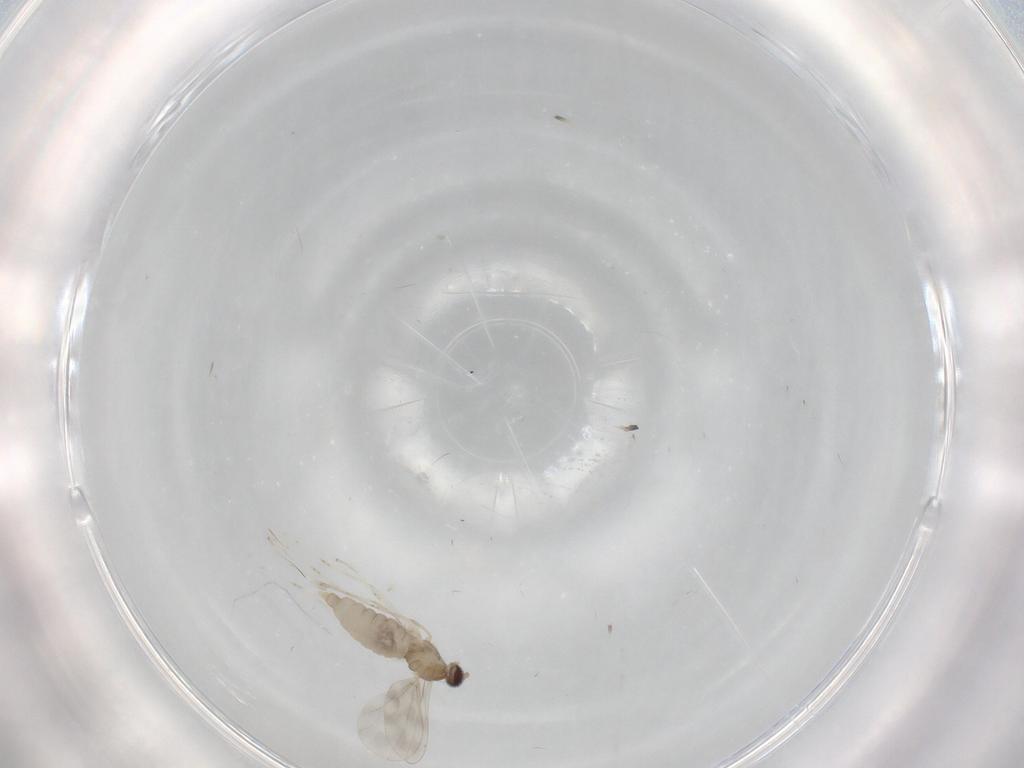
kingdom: Animalia
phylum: Arthropoda
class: Insecta
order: Diptera
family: Cecidomyiidae
